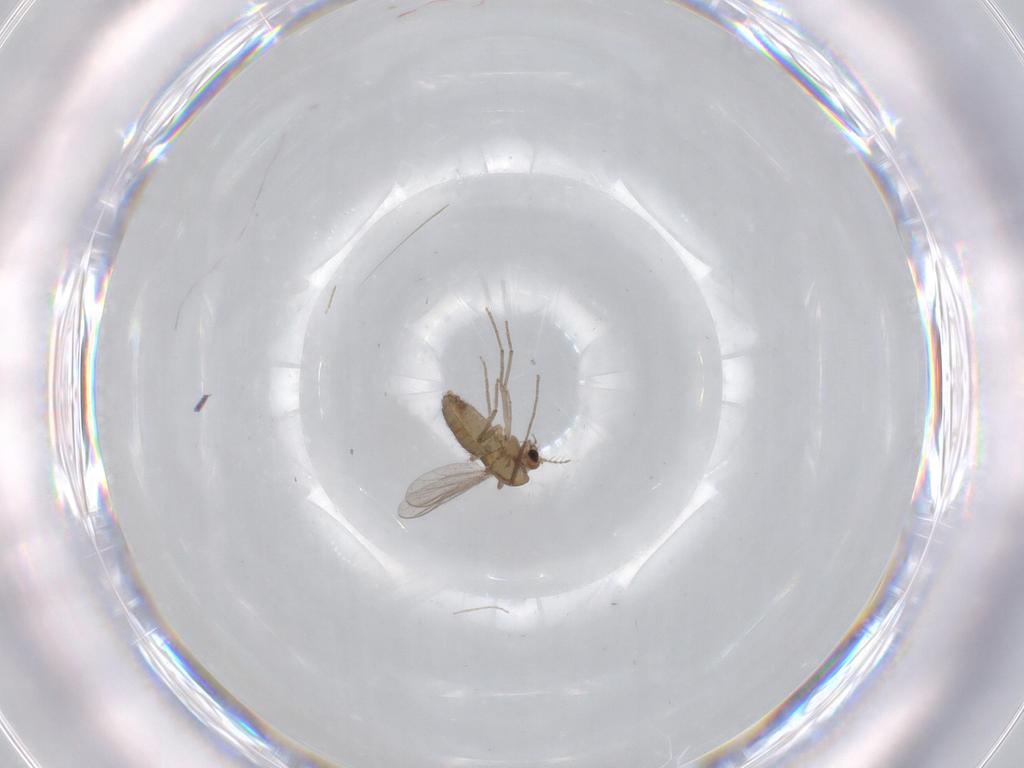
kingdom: Animalia
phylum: Arthropoda
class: Insecta
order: Diptera
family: Chironomidae
